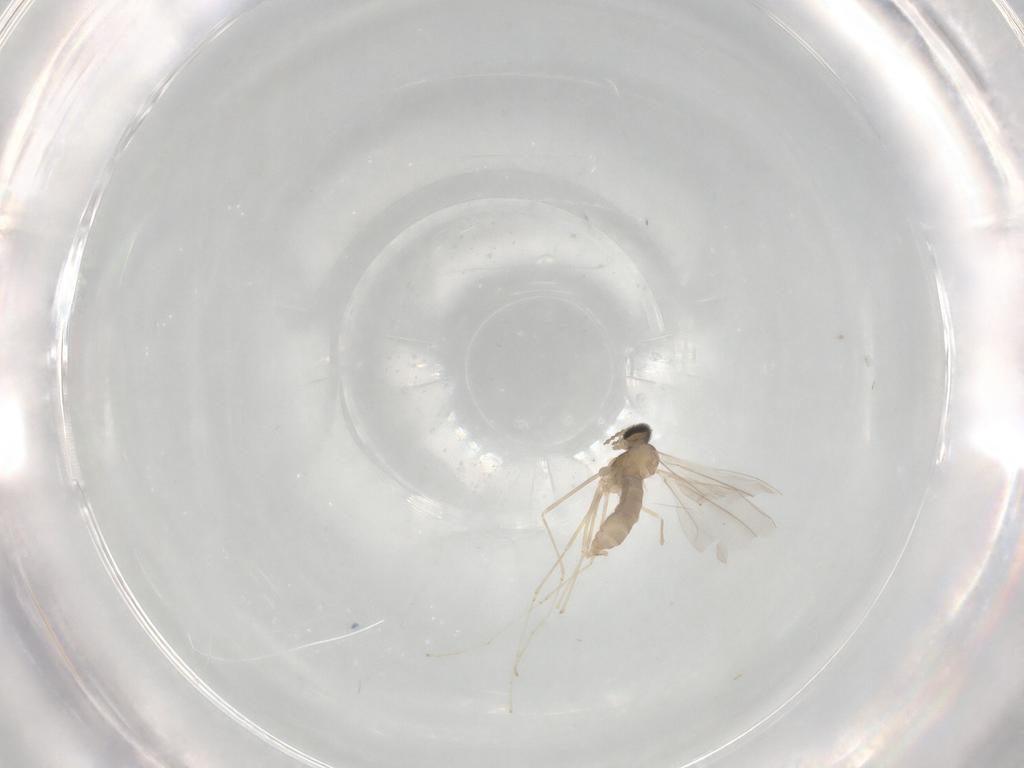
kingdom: Animalia
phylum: Arthropoda
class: Insecta
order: Diptera
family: Cecidomyiidae
